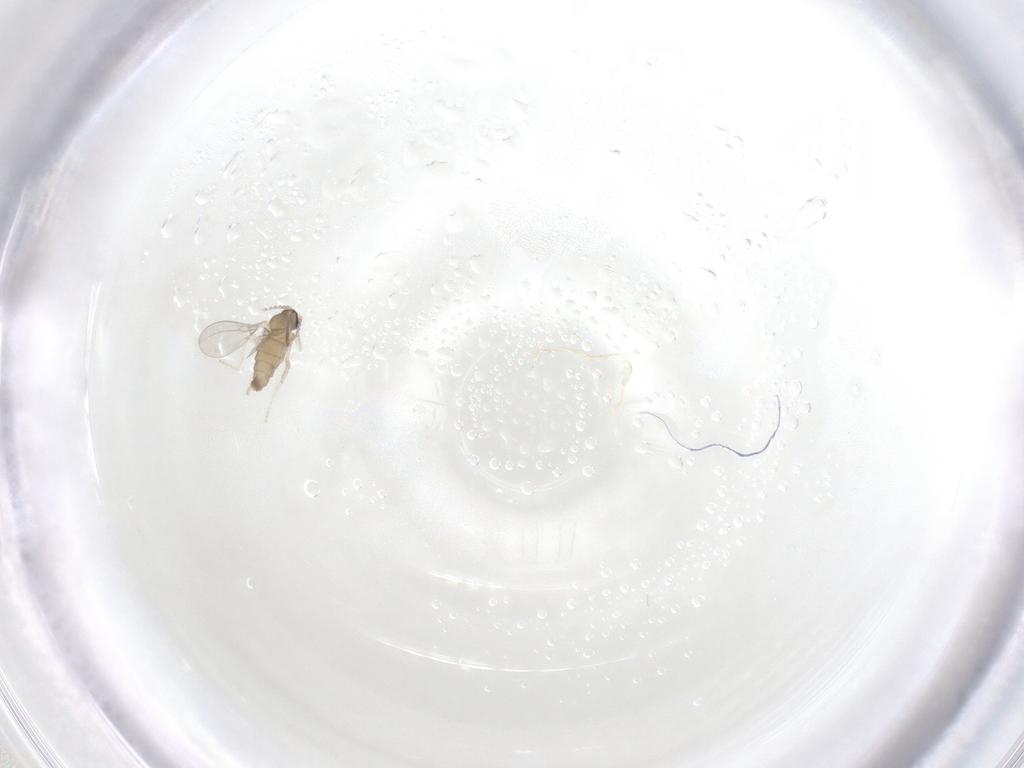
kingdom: Animalia
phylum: Arthropoda
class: Insecta
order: Diptera
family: Cecidomyiidae
